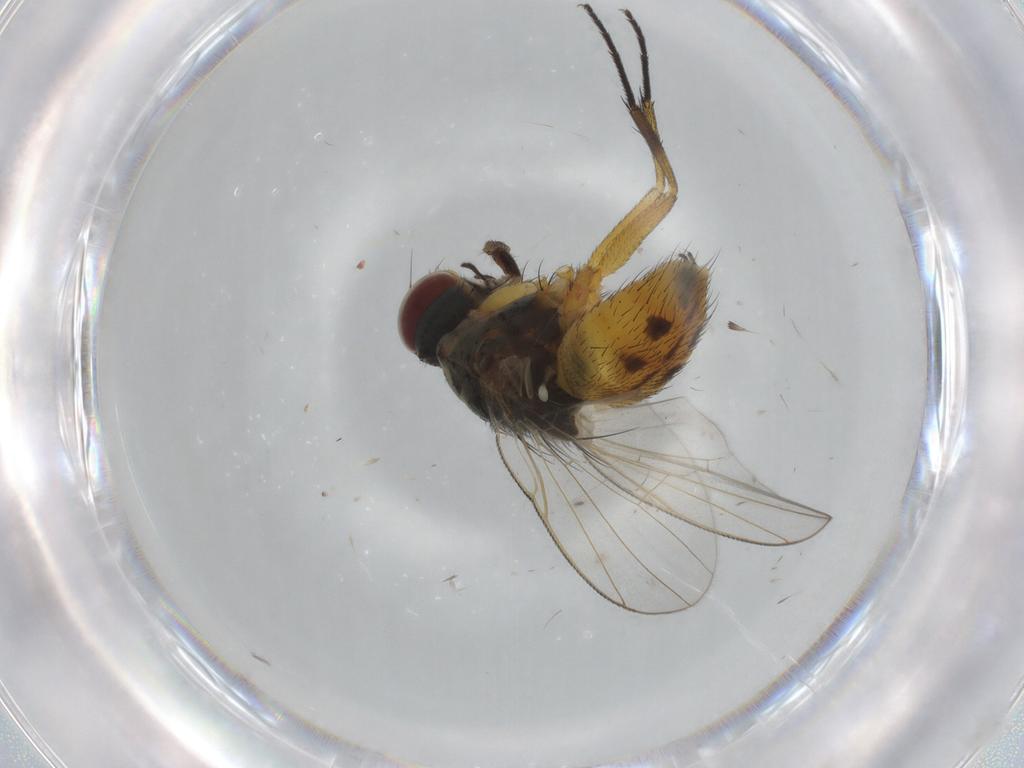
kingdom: Animalia
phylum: Arthropoda
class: Insecta
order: Diptera
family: Muscidae
